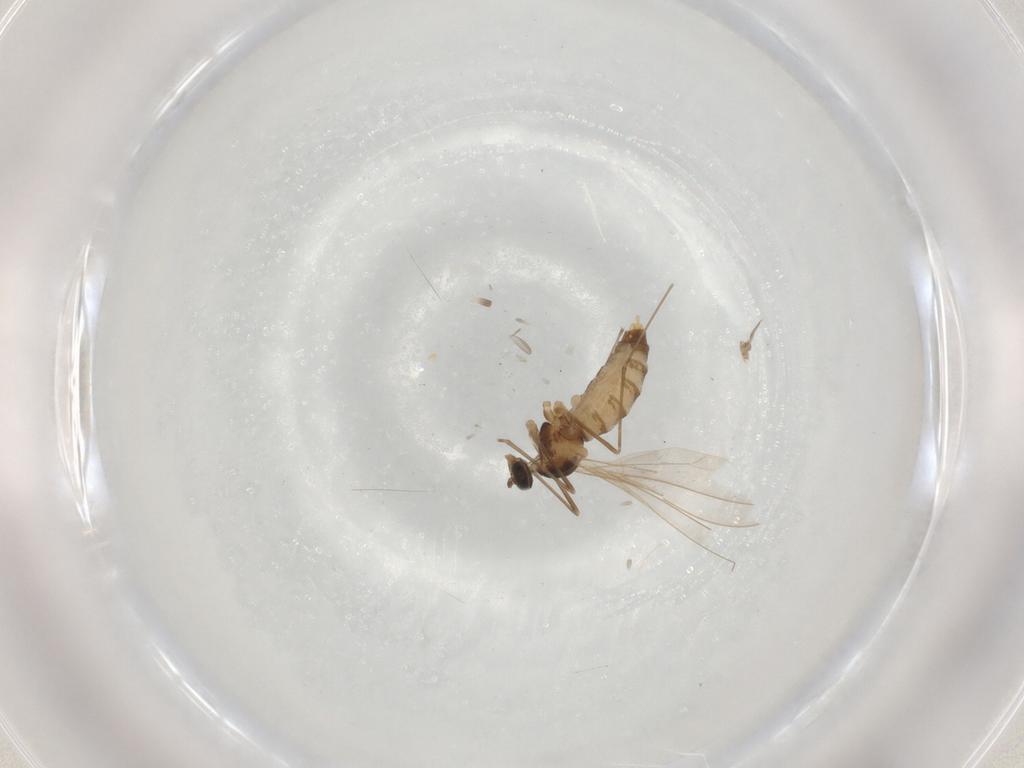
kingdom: Animalia
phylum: Arthropoda
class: Insecta
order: Diptera
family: Cecidomyiidae
